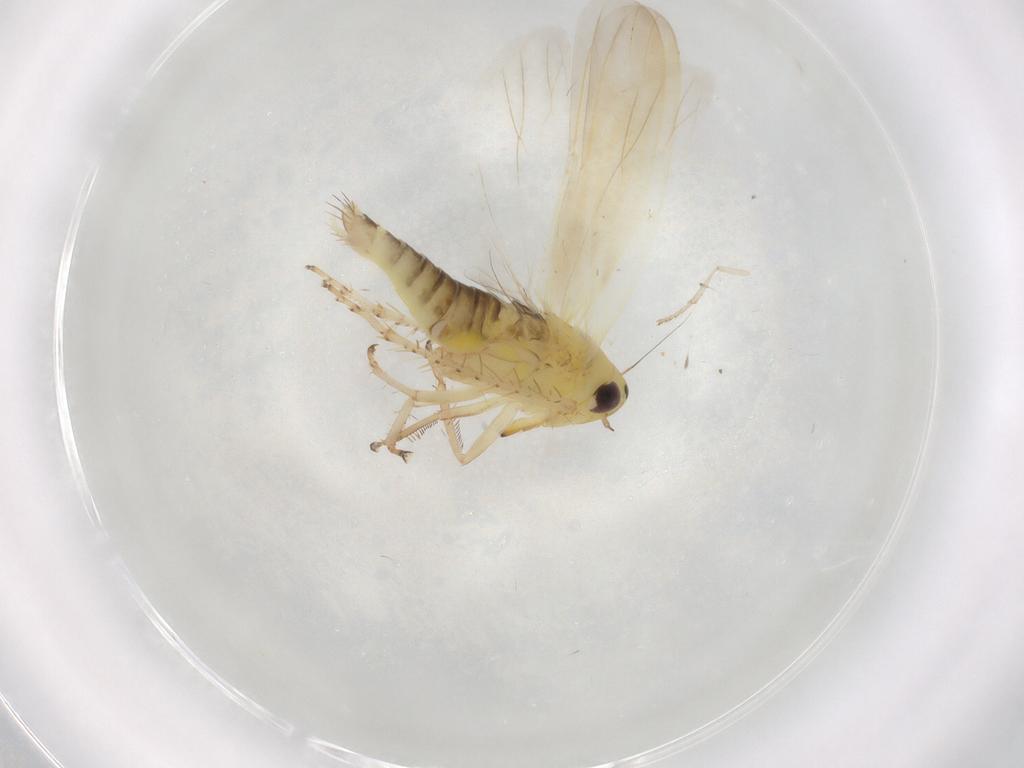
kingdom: Animalia
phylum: Arthropoda
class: Insecta
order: Hemiptera
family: Cicadellidae
